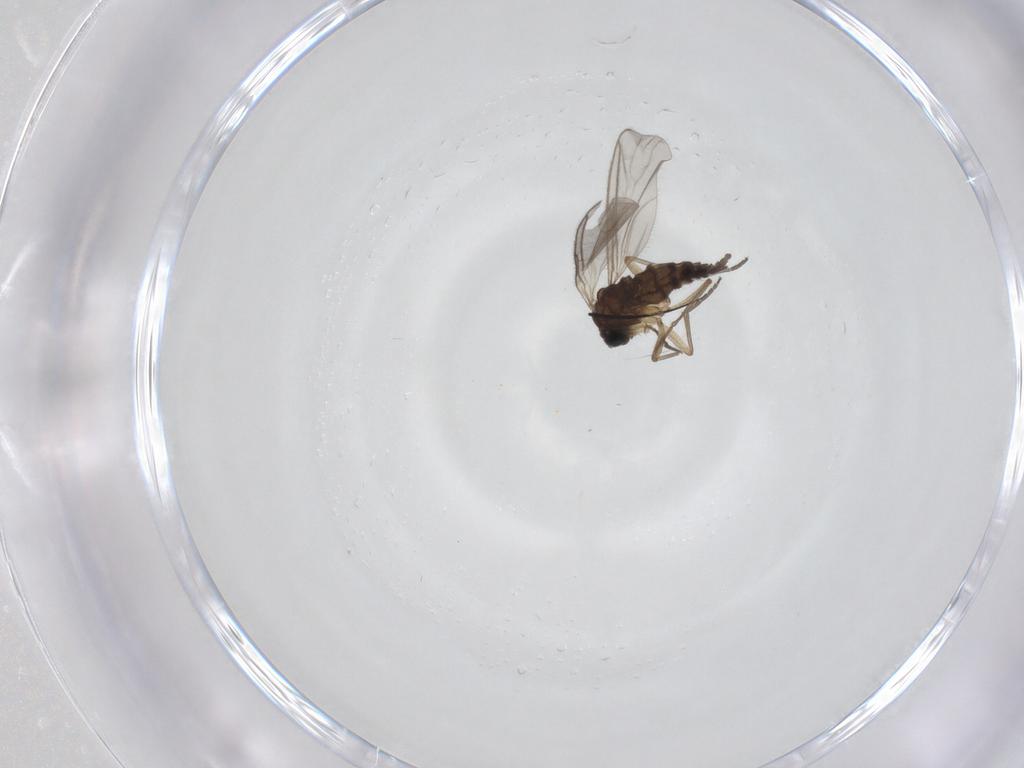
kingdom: Animalia
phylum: Arthropoda
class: Insecta
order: Diptera
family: Sciaridae
